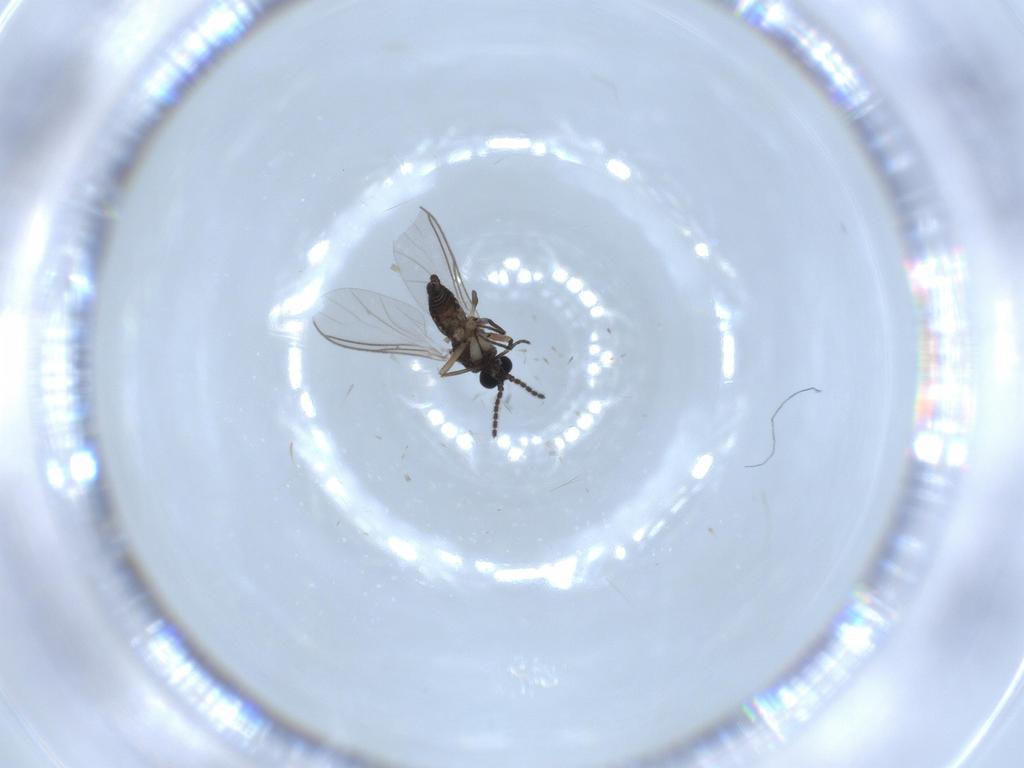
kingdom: Animalia
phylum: Arthropoda
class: Insecta
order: Diptera
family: Sciaridae
